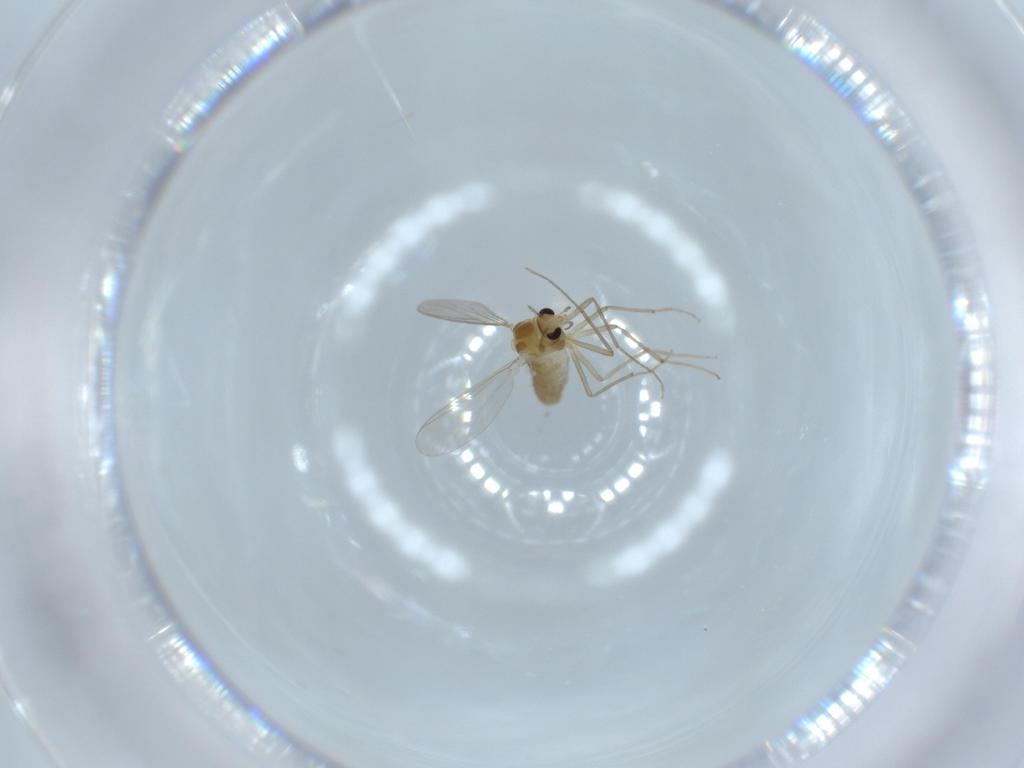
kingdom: Animalia
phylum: Arthropoda
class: Insecta
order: Diptera
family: Chironomidae
